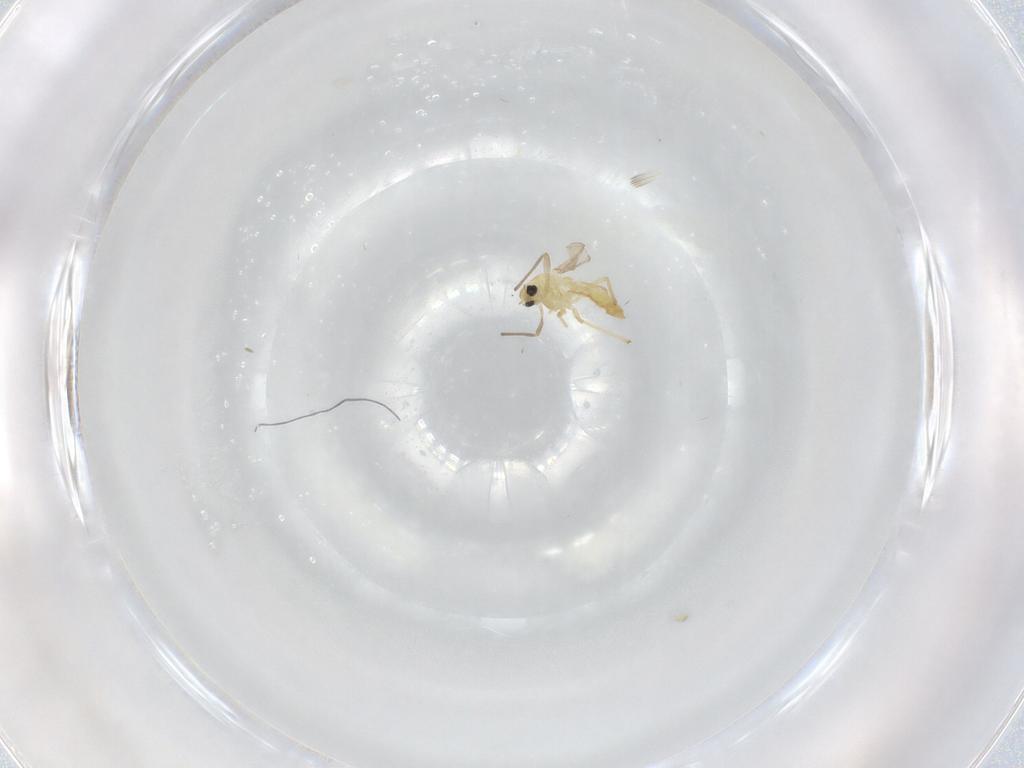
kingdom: Animalia
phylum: Arthropoda
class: Insecta
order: Diptera
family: Chironomidae
